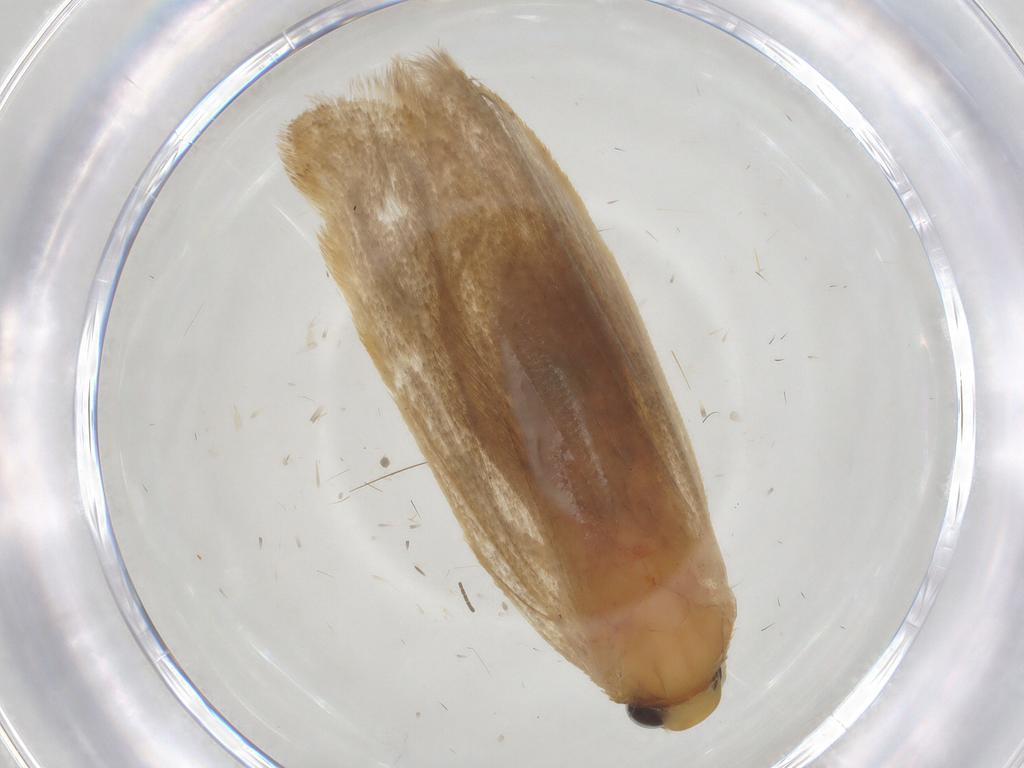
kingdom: Animalia
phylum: Arthropoda
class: Insecta
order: Lepidoptera
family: Autostichidae
